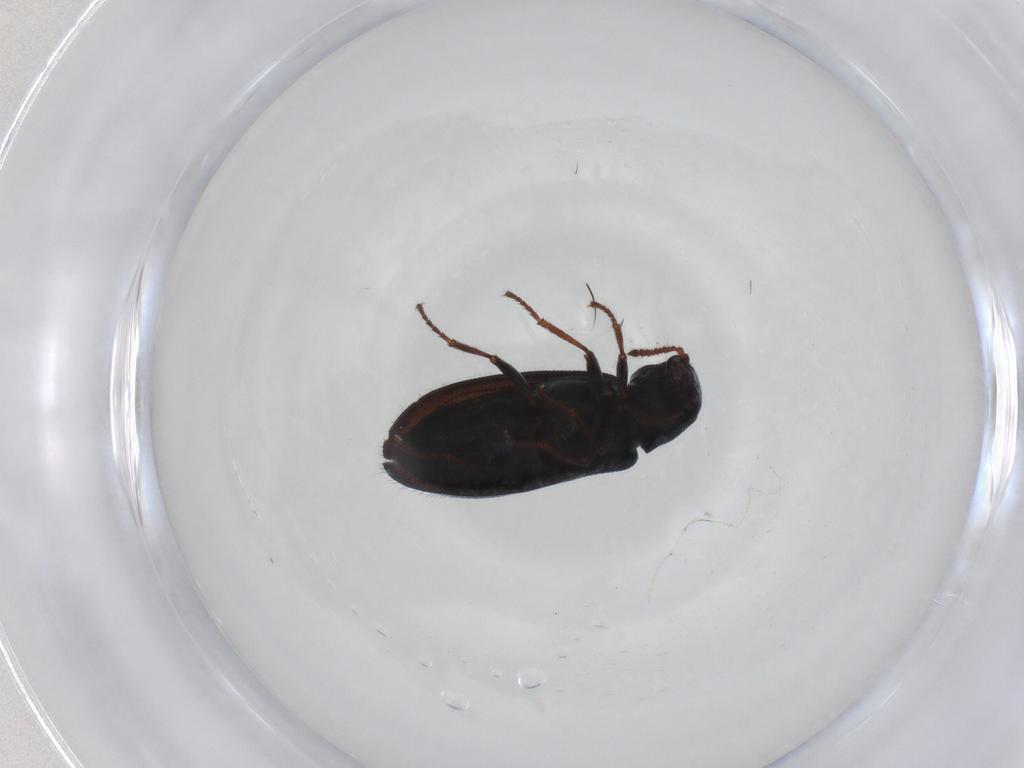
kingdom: Animalia
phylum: Arthropoda
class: Insecta
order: Coleoptera
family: Melyridae
